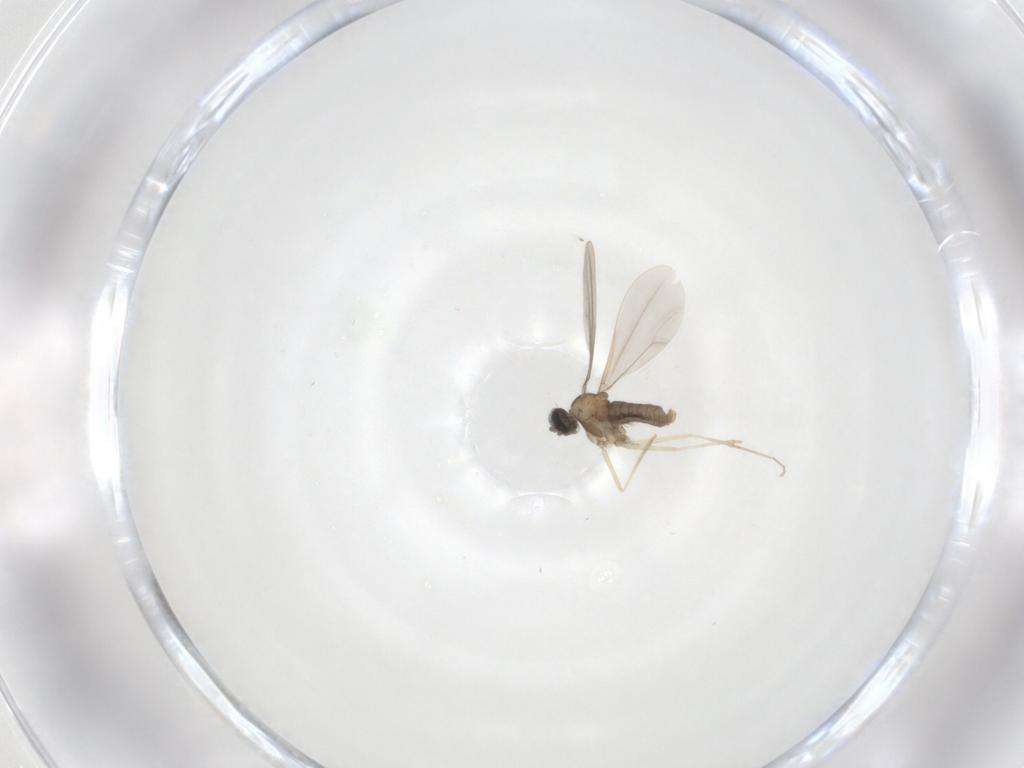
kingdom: Animalia
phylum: Arthropoda
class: Insecta
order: Diptera
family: Cecidomyiidae
